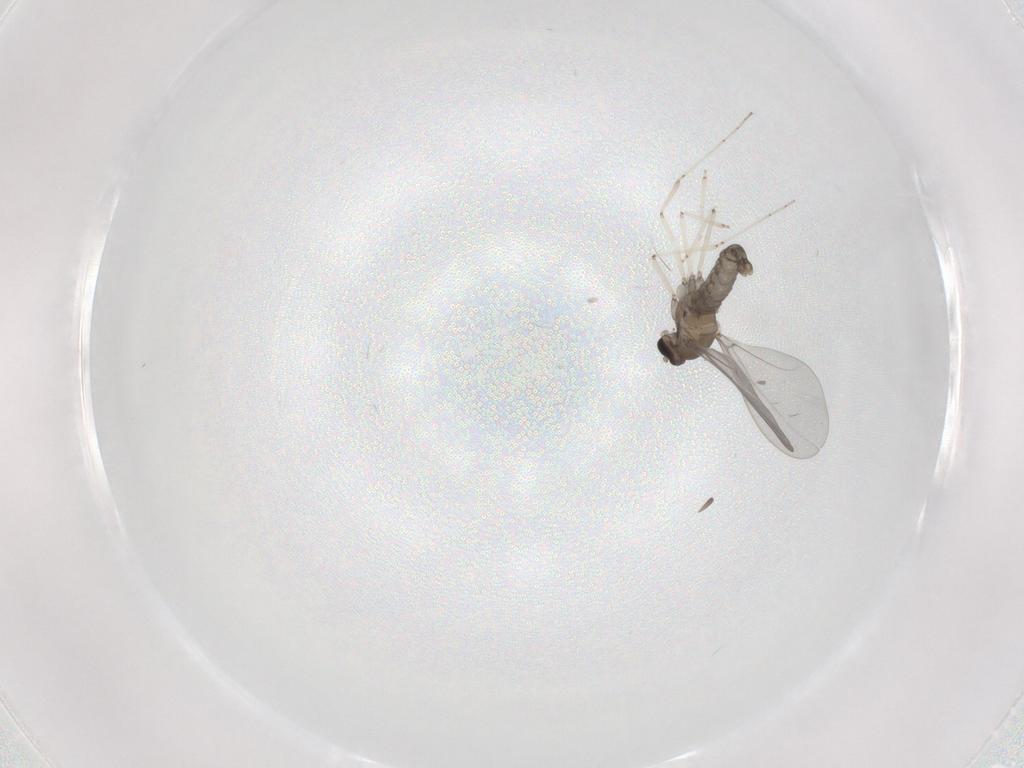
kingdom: Animalia
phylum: Arthropoda
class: Insecta
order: Diptera
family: Cecidomyiidae
